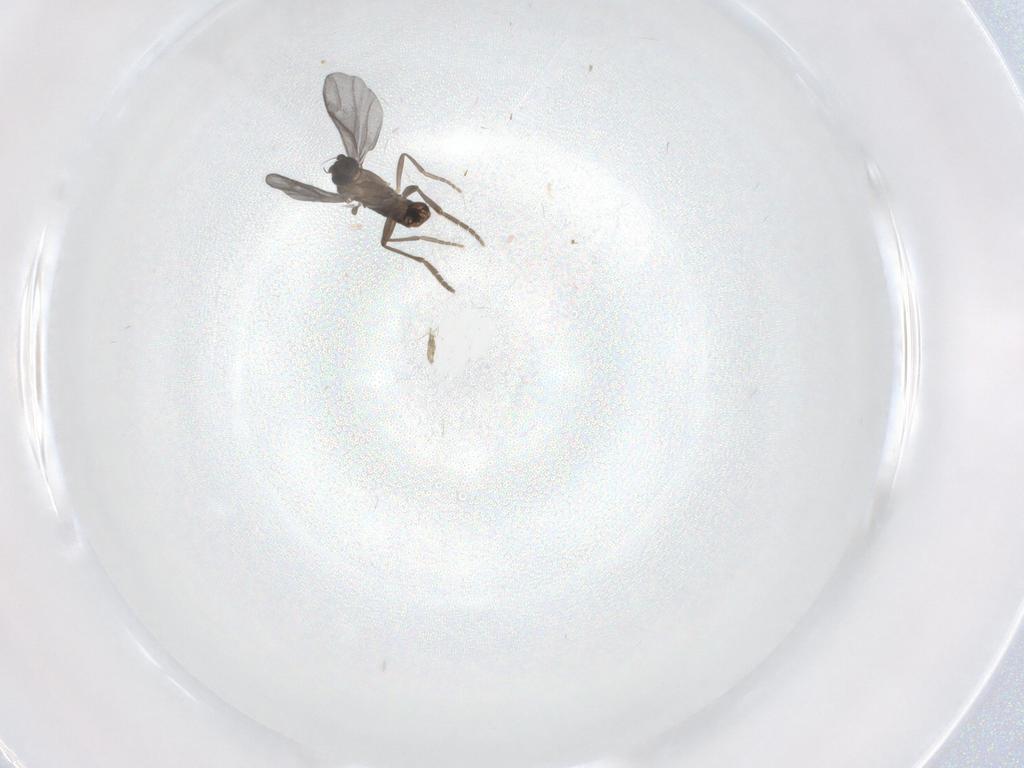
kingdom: Animalia
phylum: Arthropoda
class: Insecta
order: Diptera
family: Phoridae
